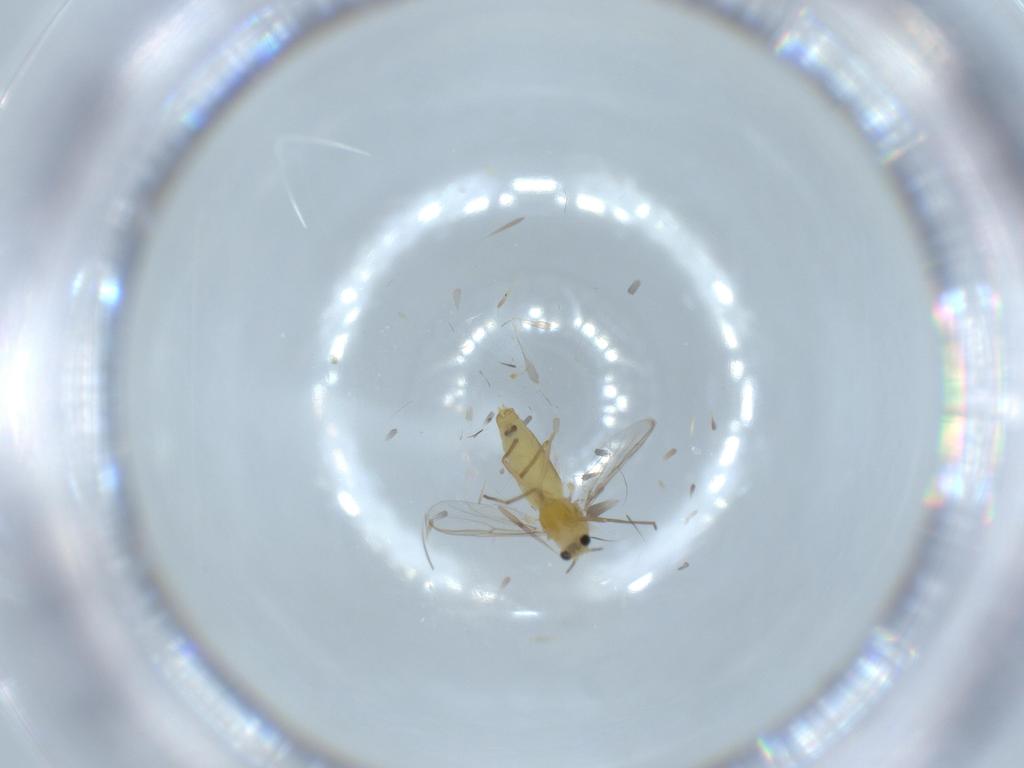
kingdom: Animalia
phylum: Arthropoda
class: Insecta
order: Diptera
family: Chironomidae
